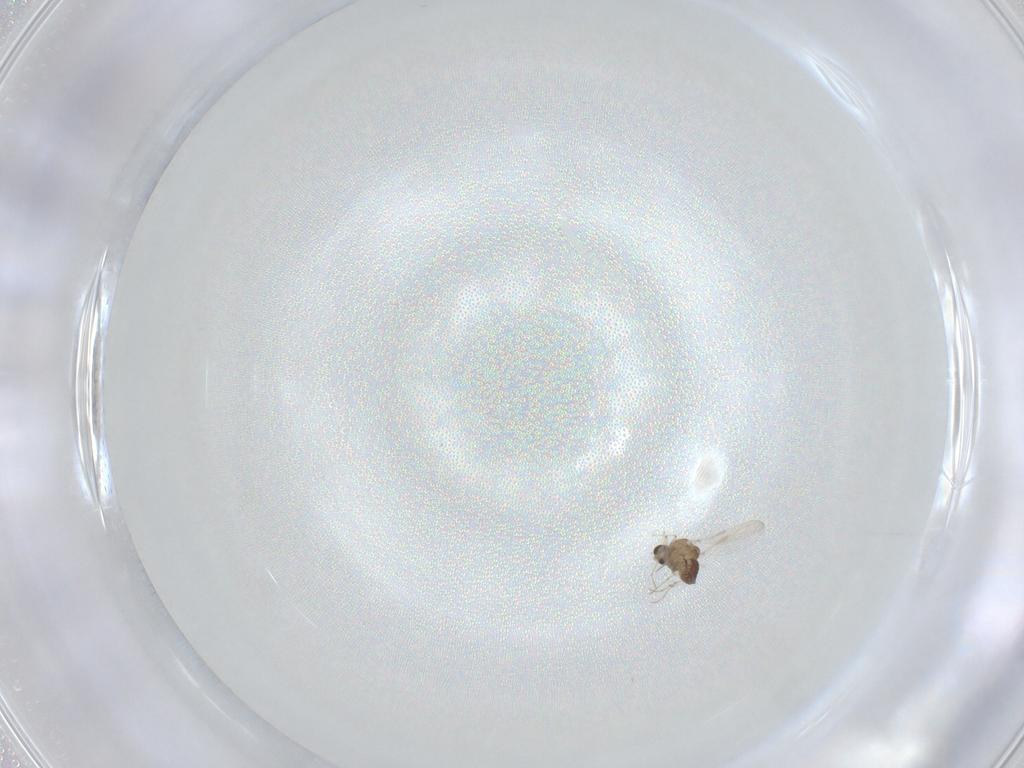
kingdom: Animalia
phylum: Arthropoda
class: Insecta
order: Diptera
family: Chironomidae
